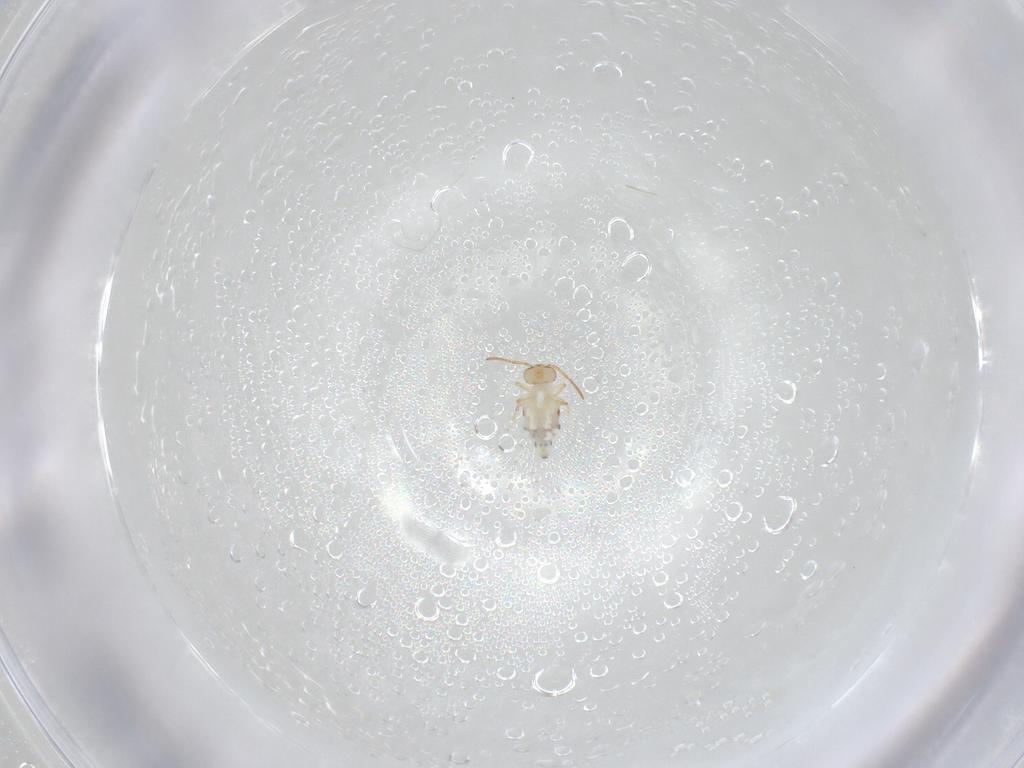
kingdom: Animalia
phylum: Arthropoda
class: Collembola
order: Symphypleona
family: Bourletiellidae
